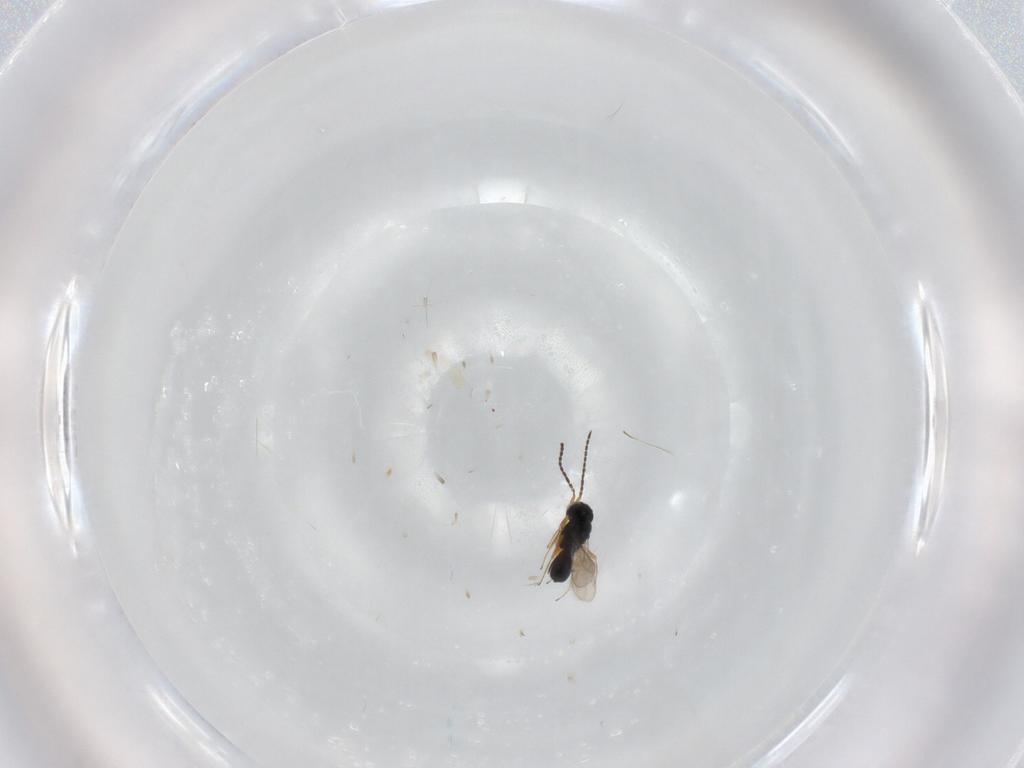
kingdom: Animalia
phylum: Arthropoda
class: Insecta
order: Hymenoptera
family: Scelionidae
